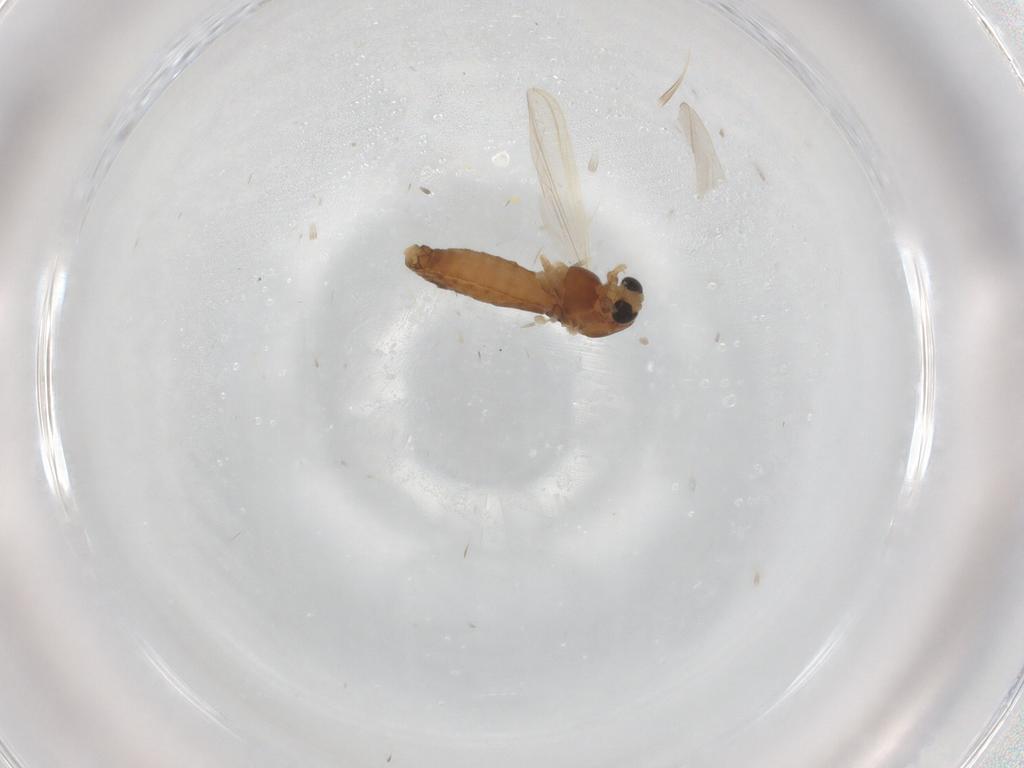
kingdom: Animalia
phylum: Arthropoda
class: Insecta
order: Diptera
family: Chironomidae
